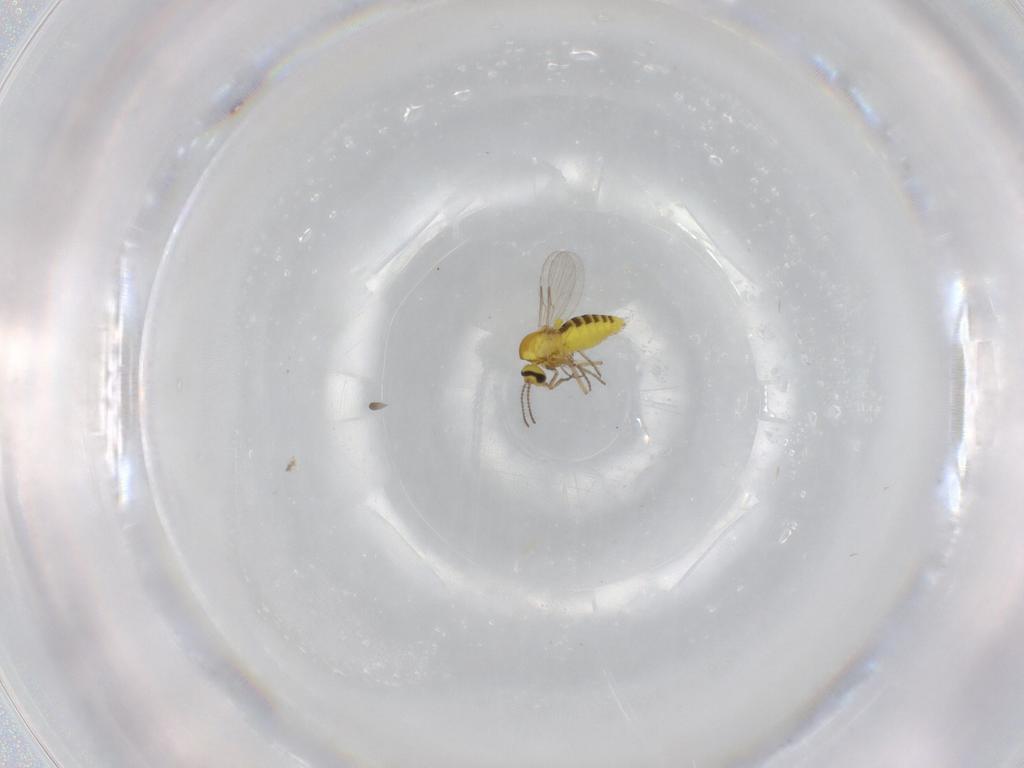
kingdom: Animalia
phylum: Arthropoda
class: Insecta
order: Diptera
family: Ceratopogonidae
